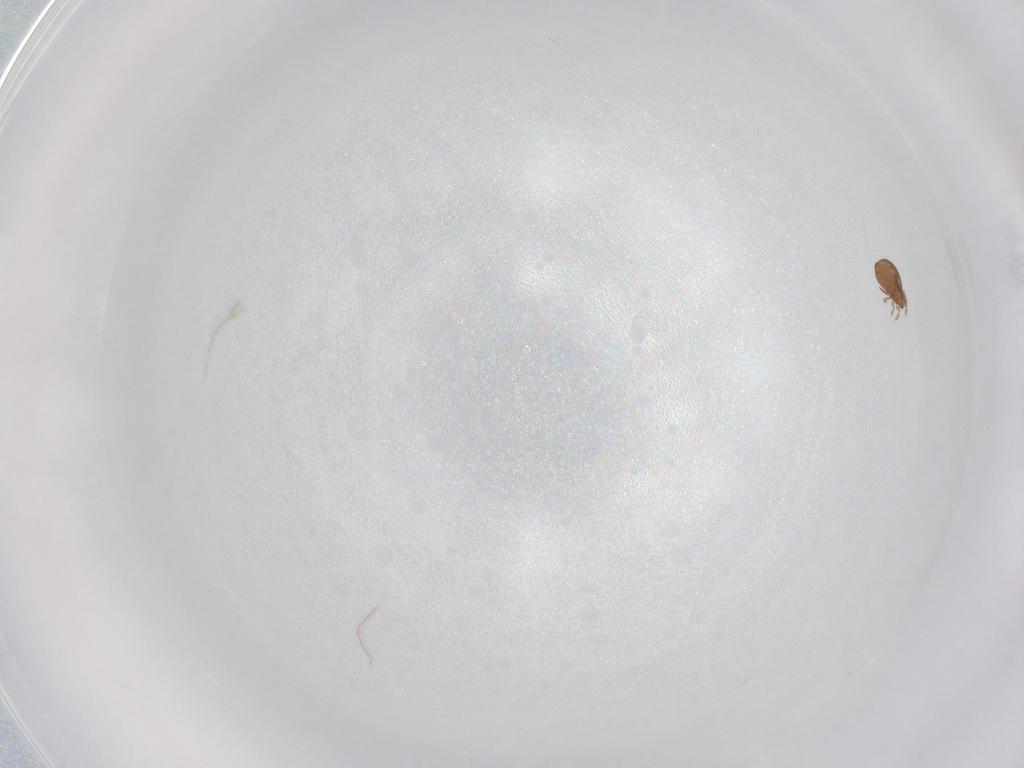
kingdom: Animalia
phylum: Arthropoda
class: Arachnida
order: Sarcoptiformes
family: Oribatulidae
